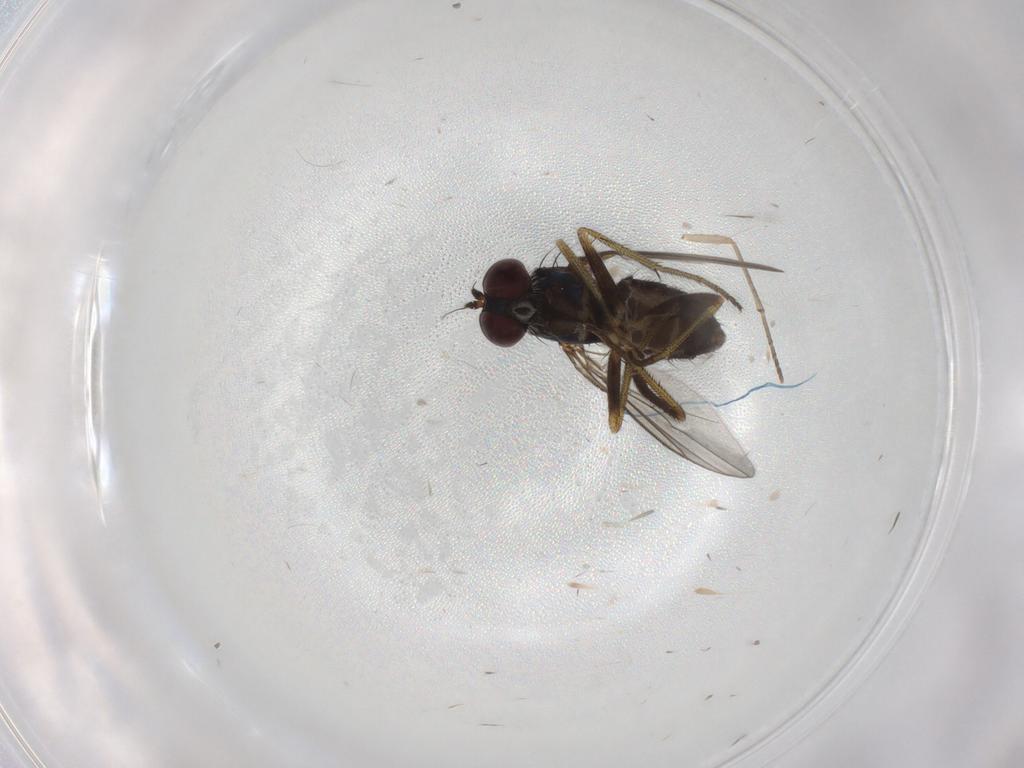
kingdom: Animalia
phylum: Arthropoda
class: Insecta
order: Diptera
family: Chironomidae
